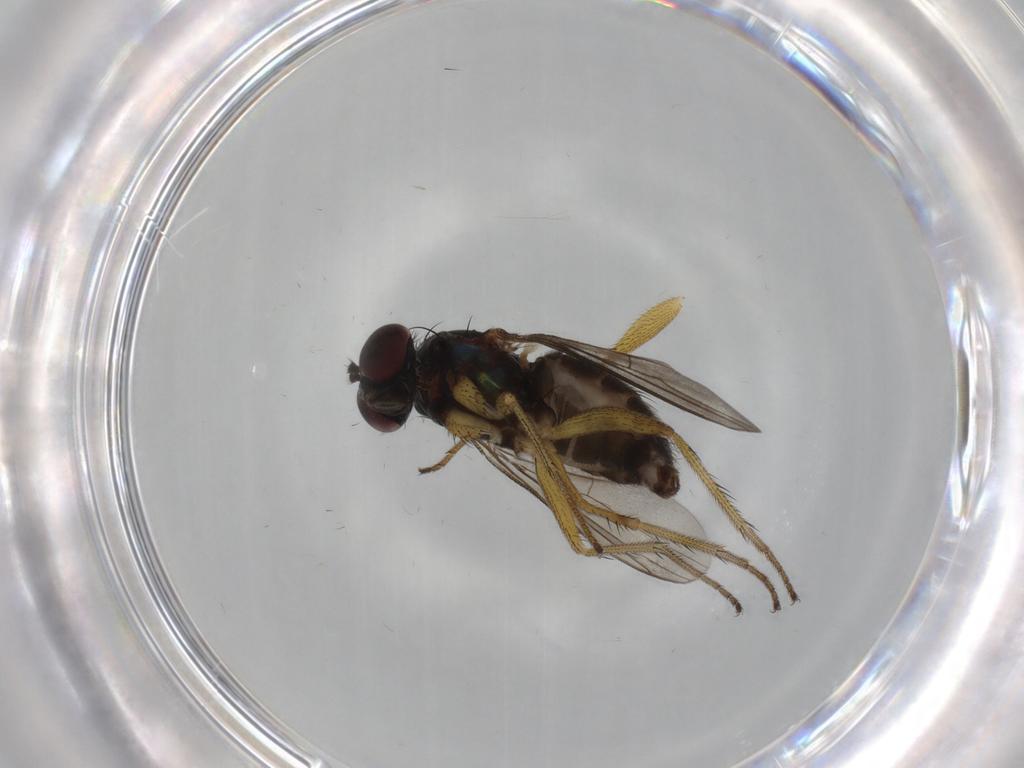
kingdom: Animalia
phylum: Arthropoda
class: Insecta
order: Diptera
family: Dolichopodidae
